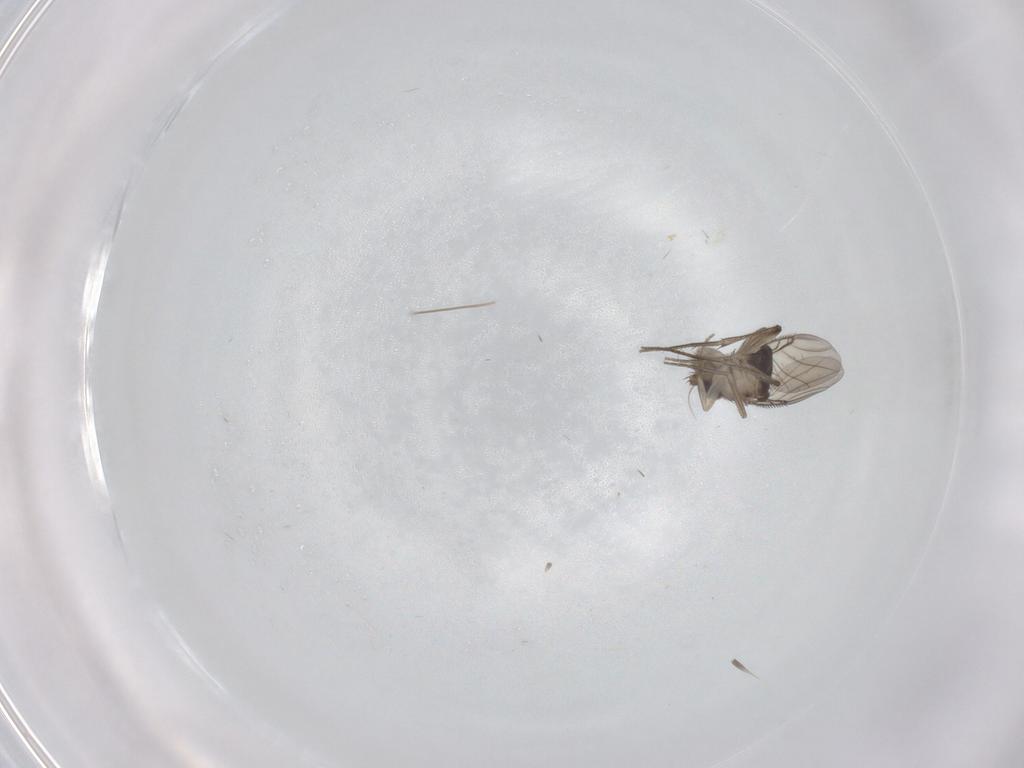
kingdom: Animalia
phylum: Arthropoda
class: Insecta
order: Diptera
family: Phoridae
